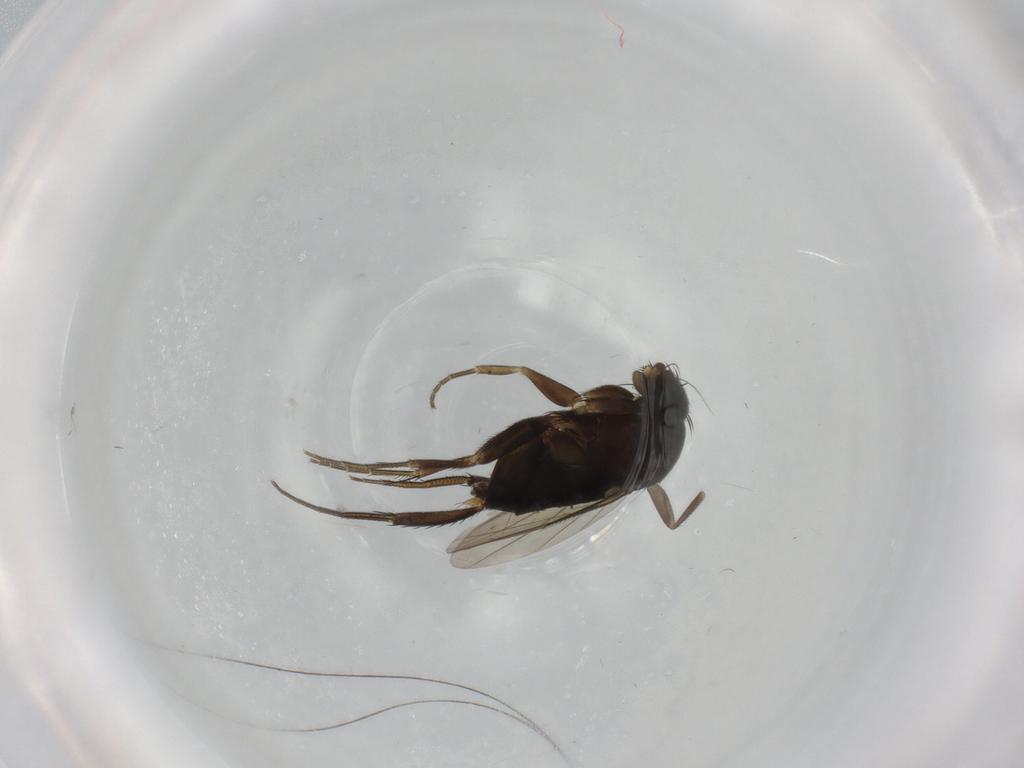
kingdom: Animalia
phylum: Arthropoda
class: Insecta
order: Diptera
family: Phoridae
